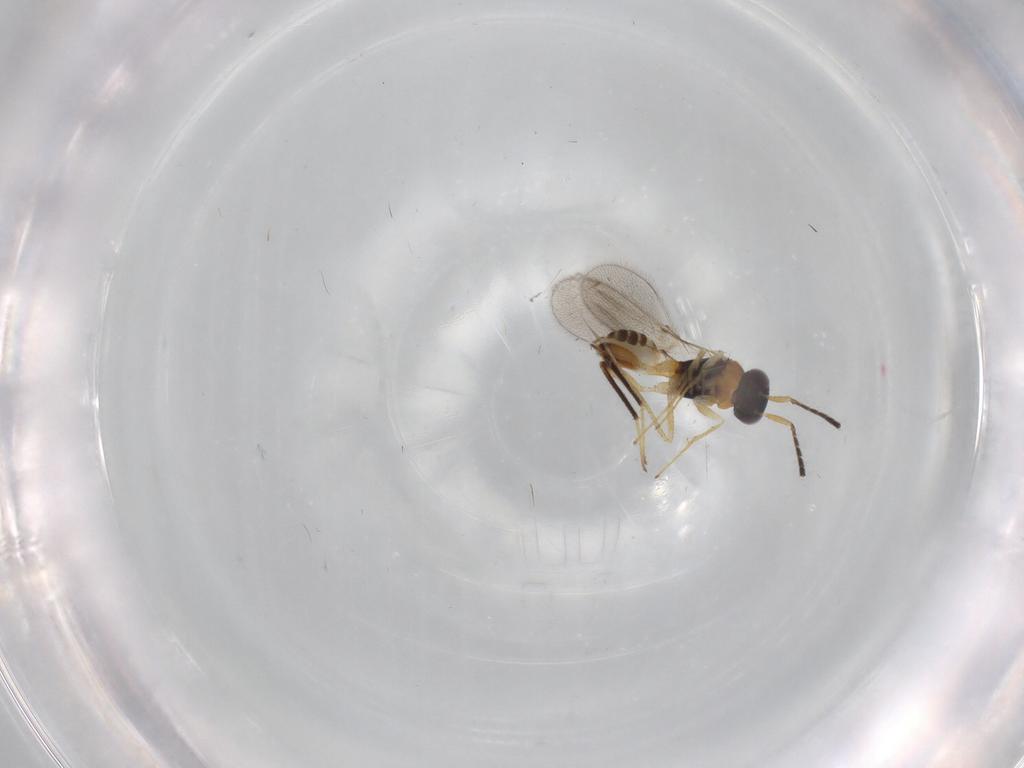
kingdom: Animalia
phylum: Arthropoda
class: Insecta
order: Hymenoptera
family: Mymaridae
